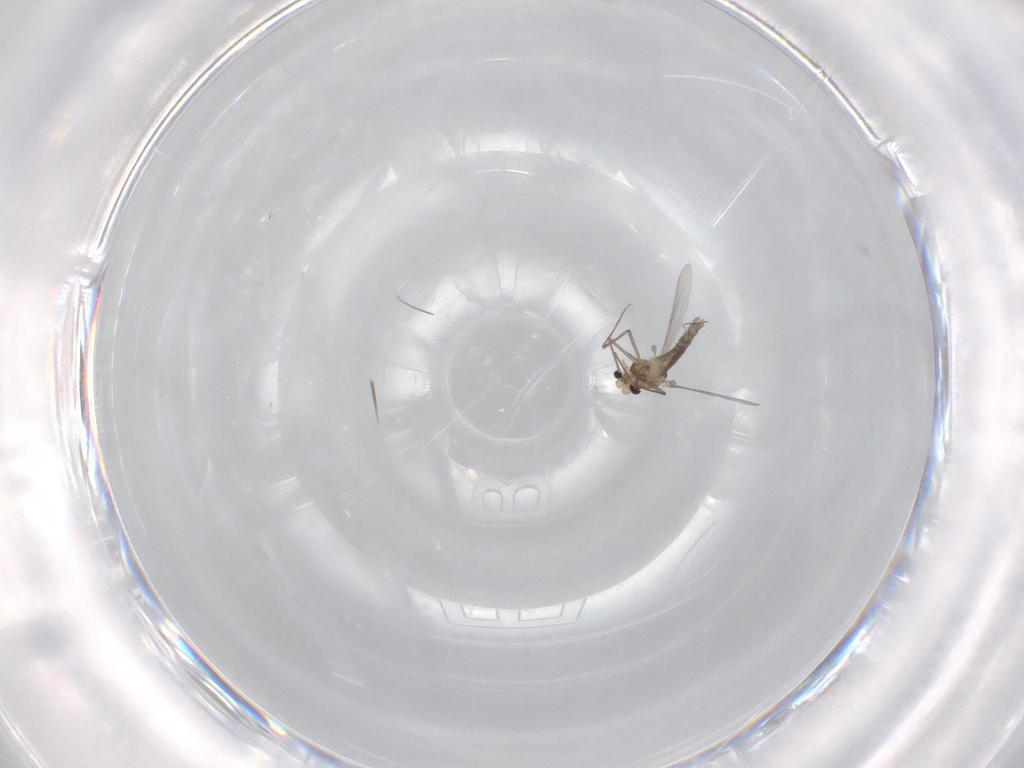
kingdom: Animalia
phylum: Arthropoda
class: Insecta
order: Diptera
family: Chironomidae
